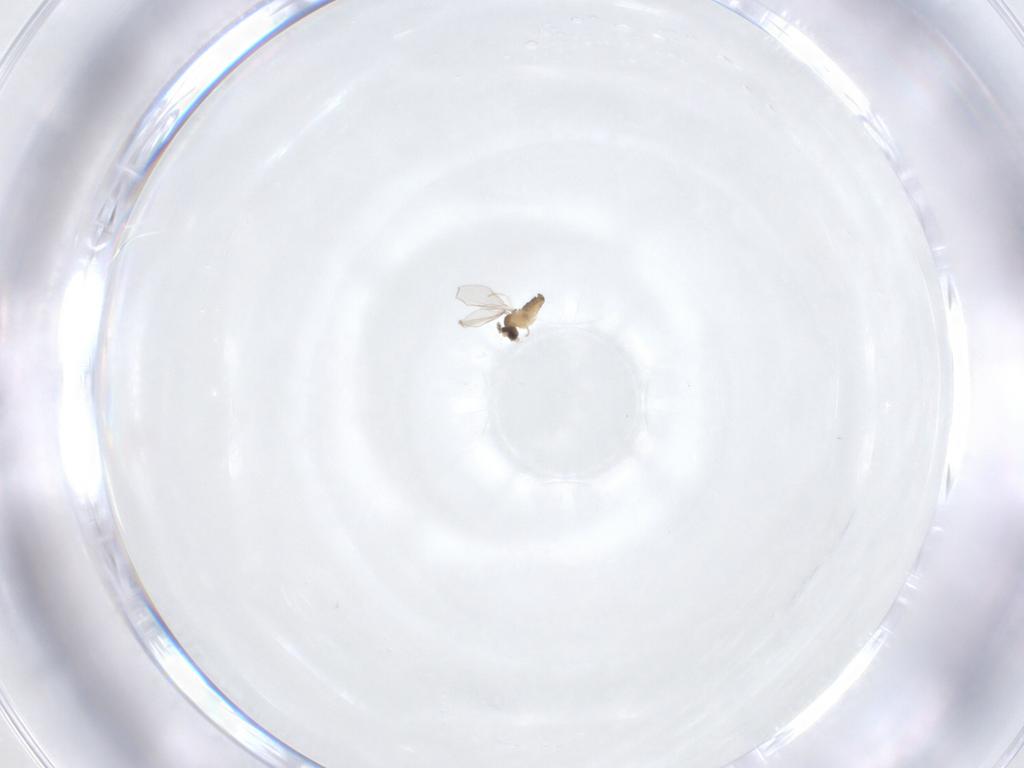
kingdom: Animalia
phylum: Arthropoda
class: Insecta
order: Diptera
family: Cecidomyiidae
